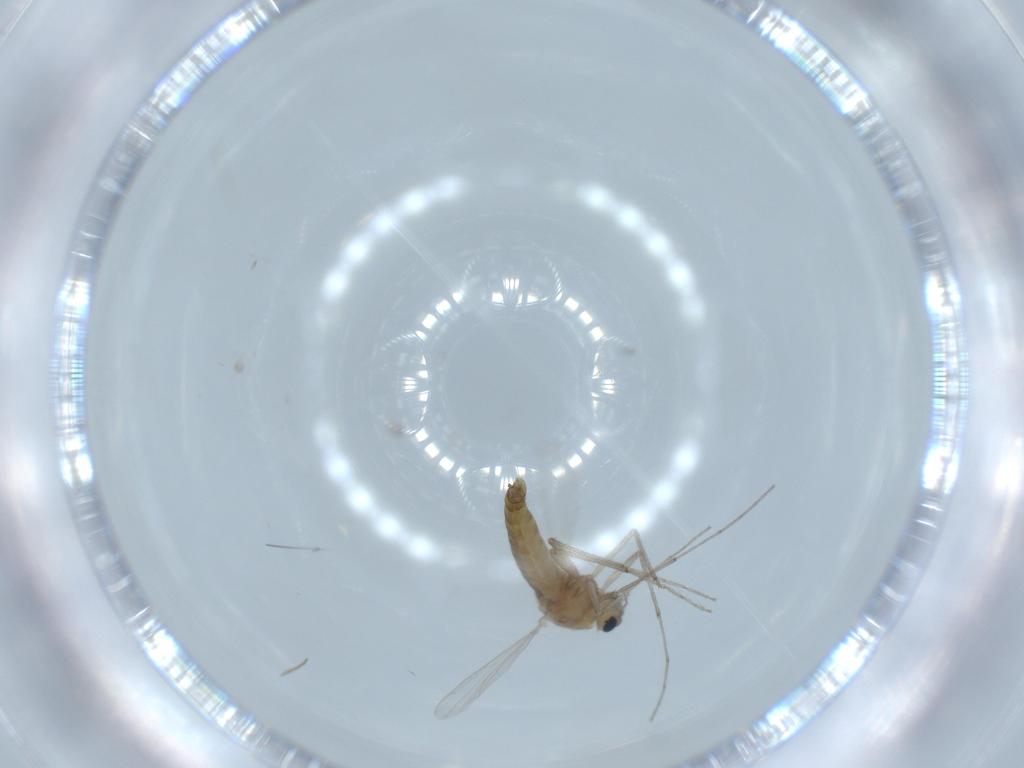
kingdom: Animalia
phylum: Arthropoda
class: Insecta
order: Diptera
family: Chironomidae
